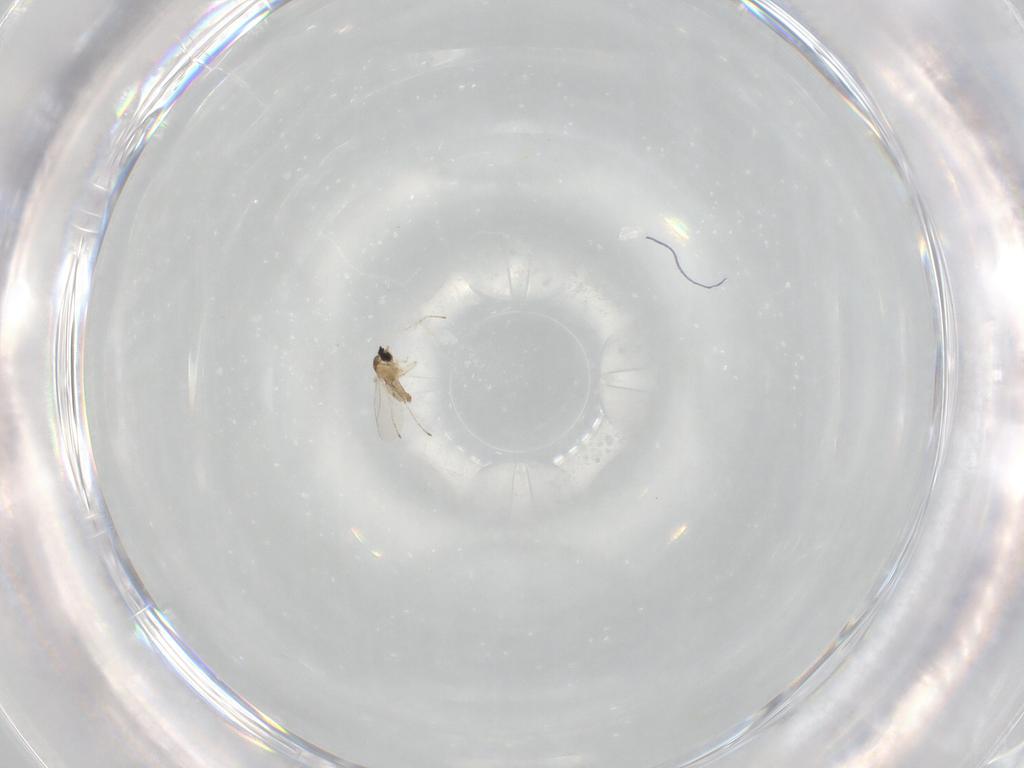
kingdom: Animalia
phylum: Arthropoda
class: Insecta
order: Diptera
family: Sciaridae
